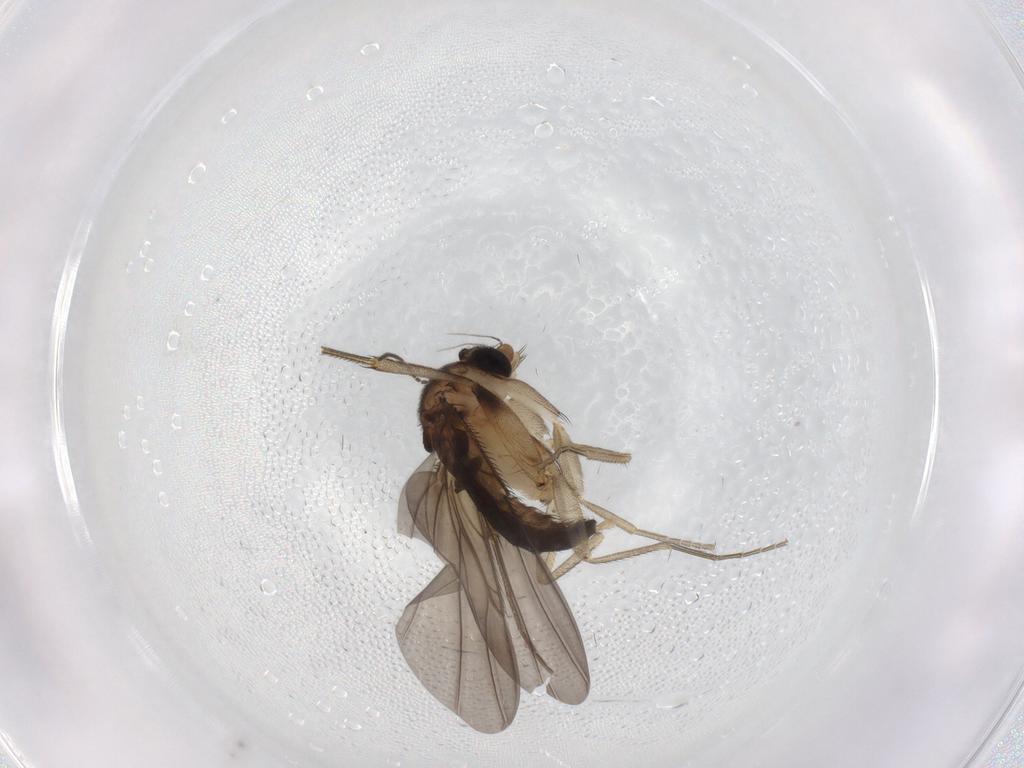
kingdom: Animalia
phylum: Arthropoda
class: Insecta
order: Diptera
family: Phoridae
